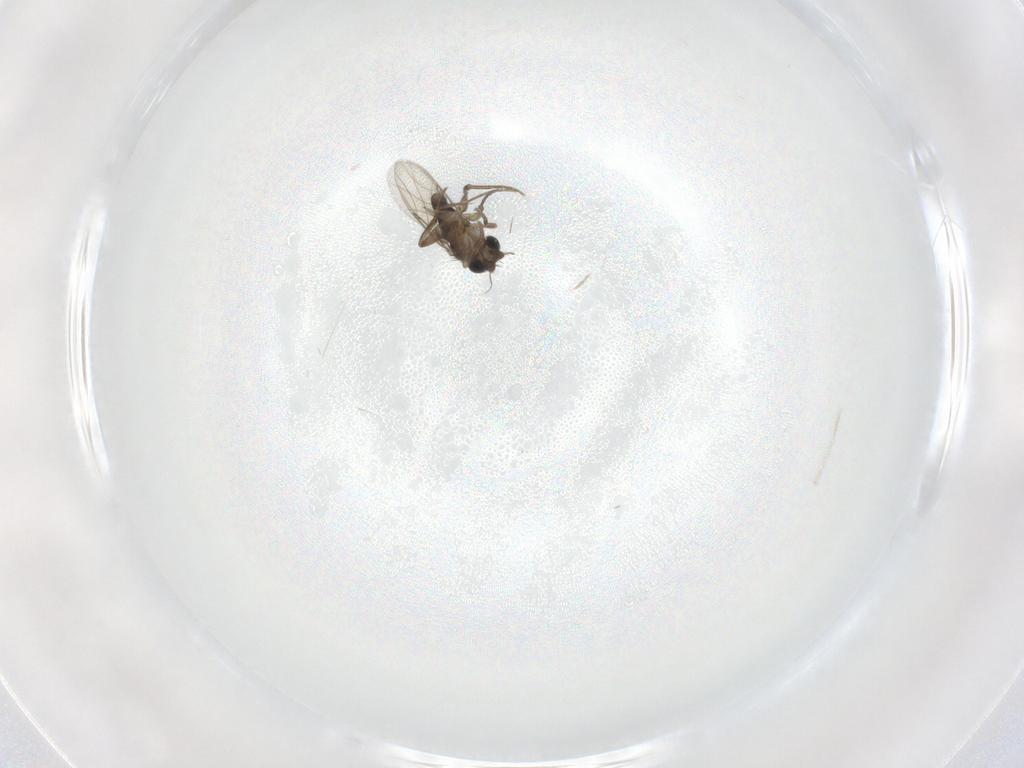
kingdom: Animalia
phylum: Arthropoda
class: Insecta
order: Diptera
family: Phoridae
